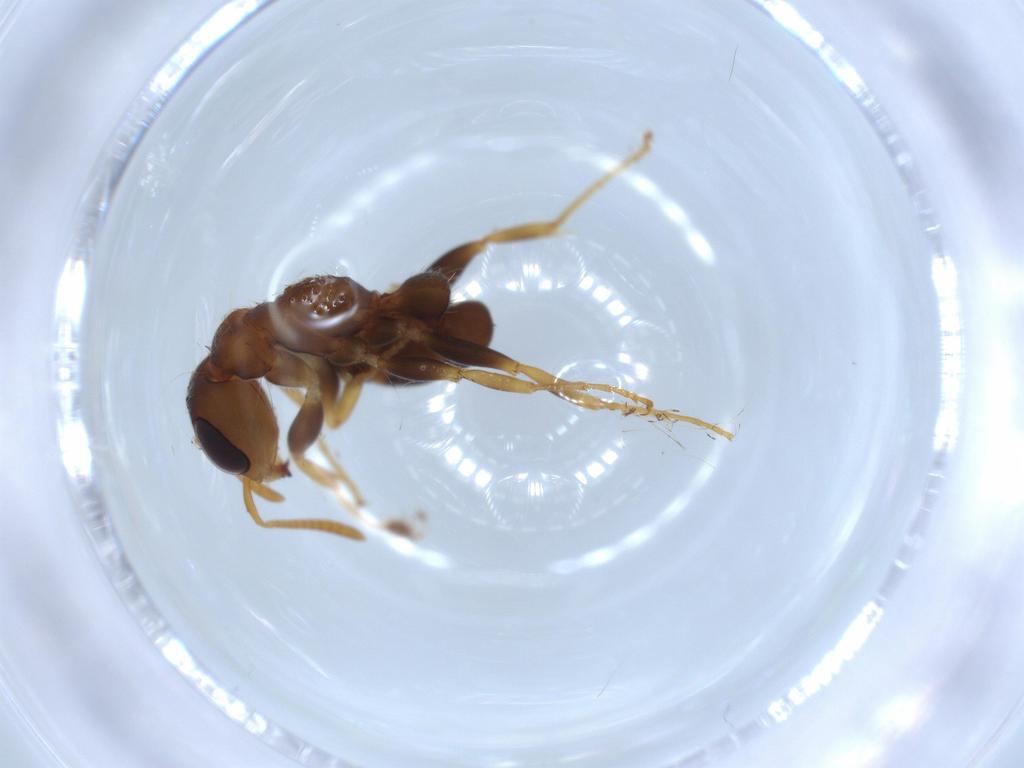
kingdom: Animalia
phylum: Arthropoda
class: Insecta
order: Hymenoptera
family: Formicidae
